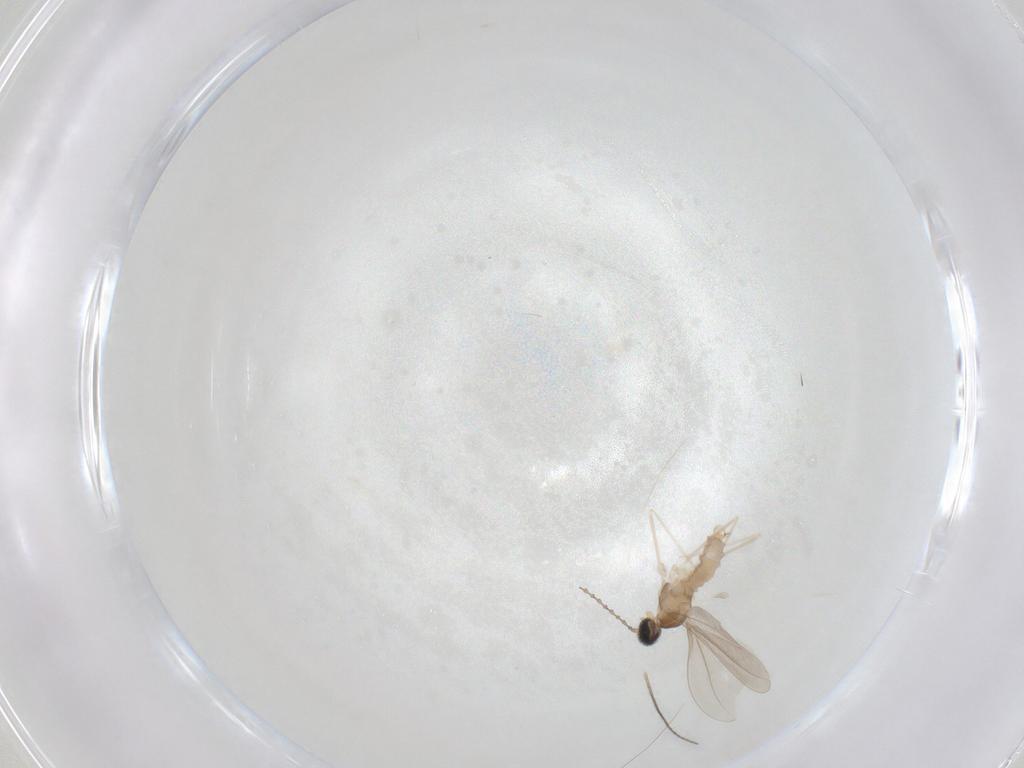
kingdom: Animalia
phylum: Arthropoda
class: Insecta
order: Diptera
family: Cecidomyiidae
